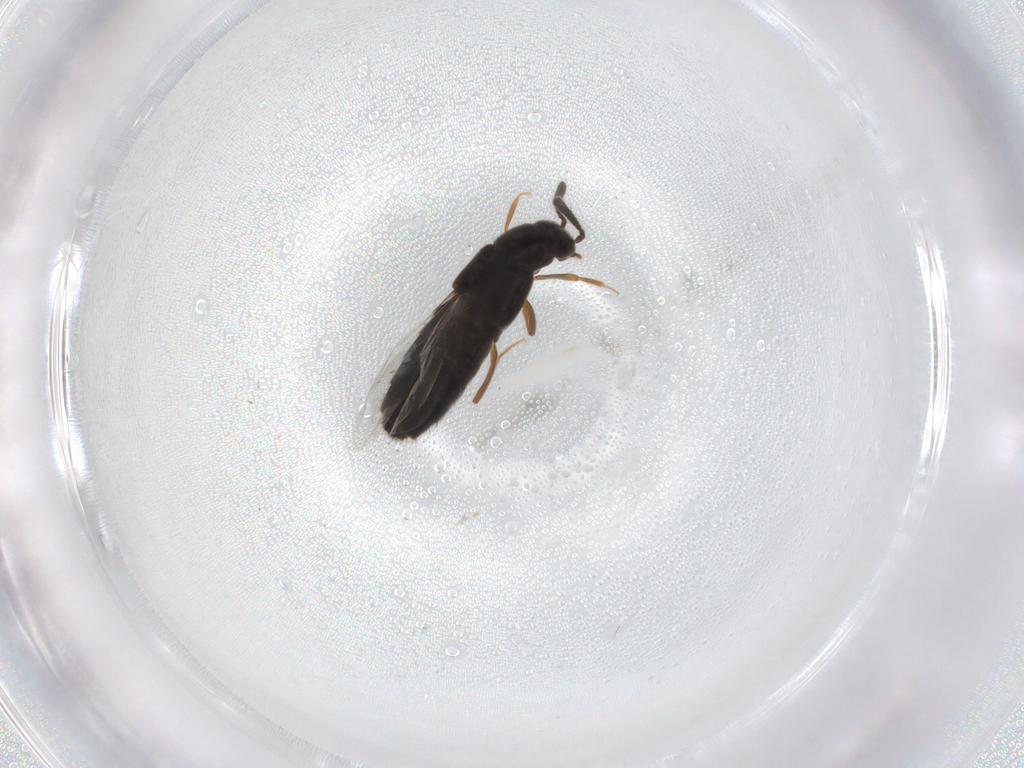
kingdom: Animalia
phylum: Arthropoda
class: Insecta
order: Coleoptera
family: Staphylinidae
